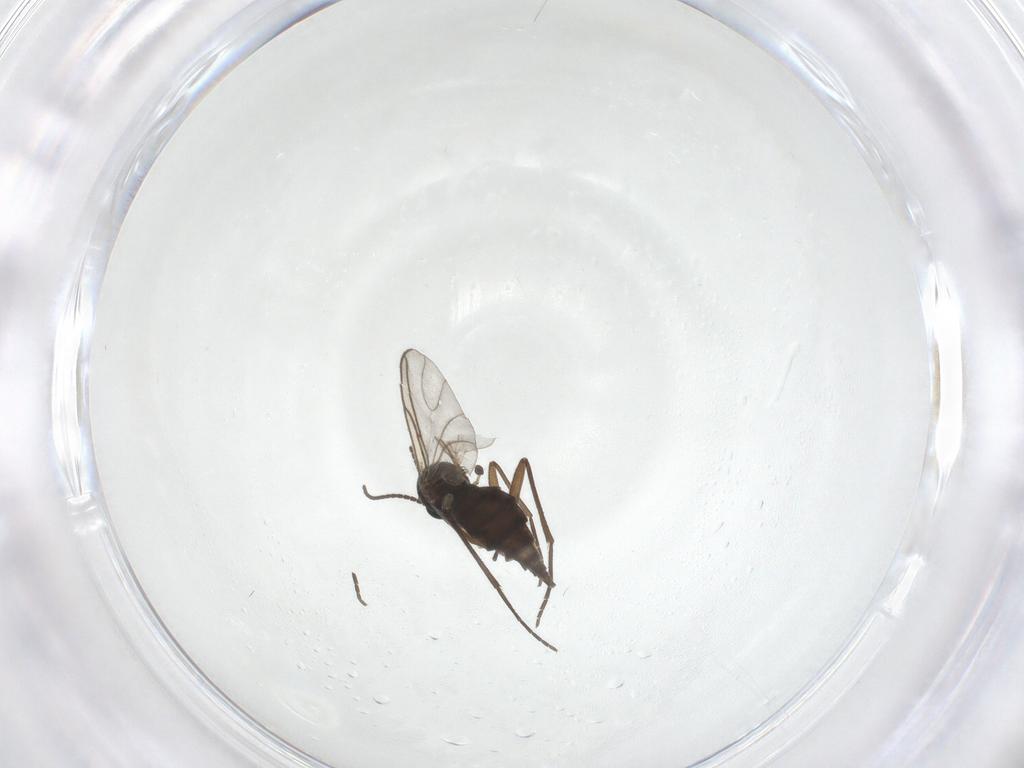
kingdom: Animalia
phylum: Arthropoda
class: Insecta
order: Diptera
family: Sciaridae
